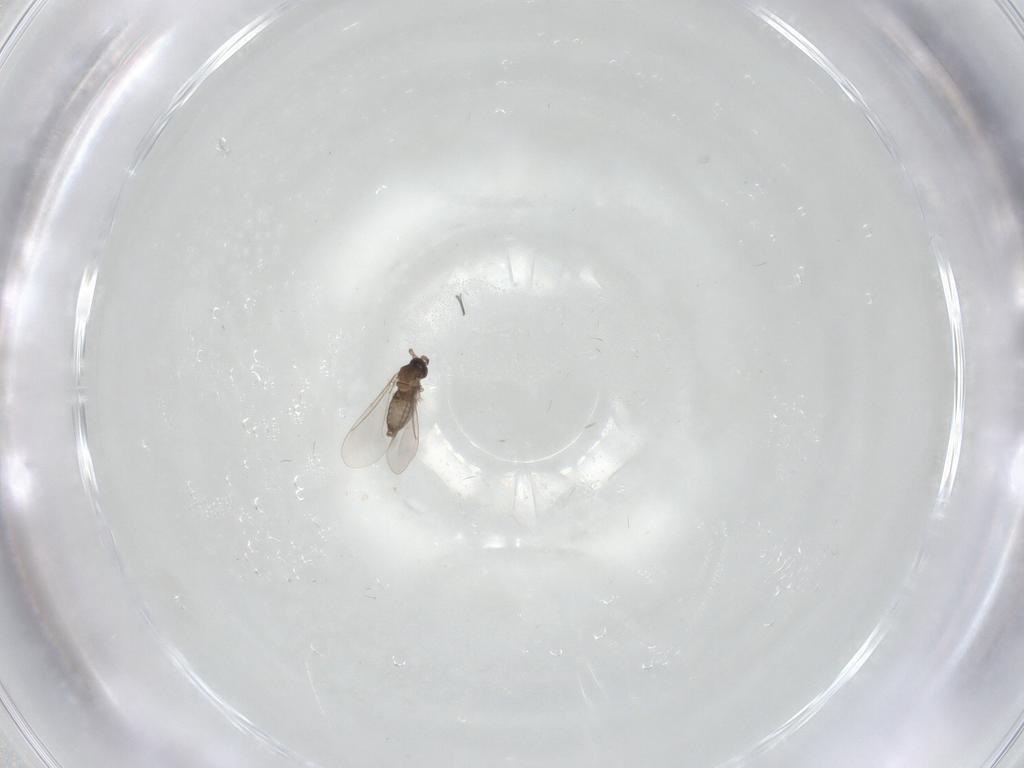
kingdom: Animalia
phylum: Arthropoda
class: Insecta
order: Diptera
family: Cecidomyiidae
